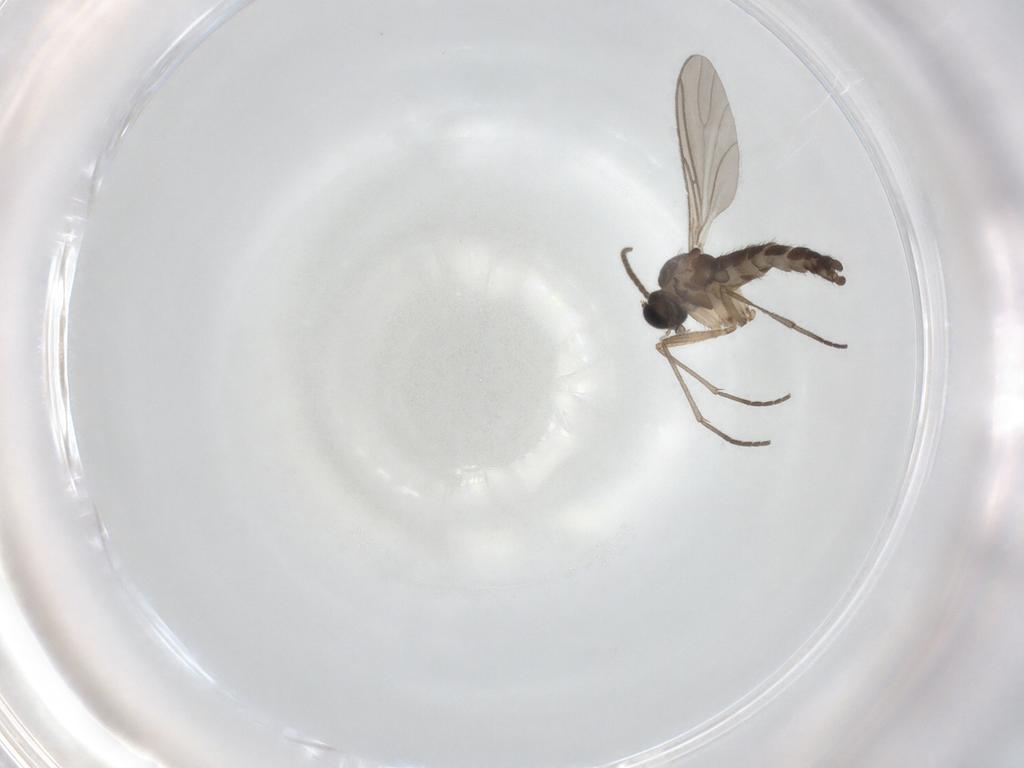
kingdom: Animalia
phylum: Arthropoda
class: Insecta
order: Diptera
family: Sciaridae
